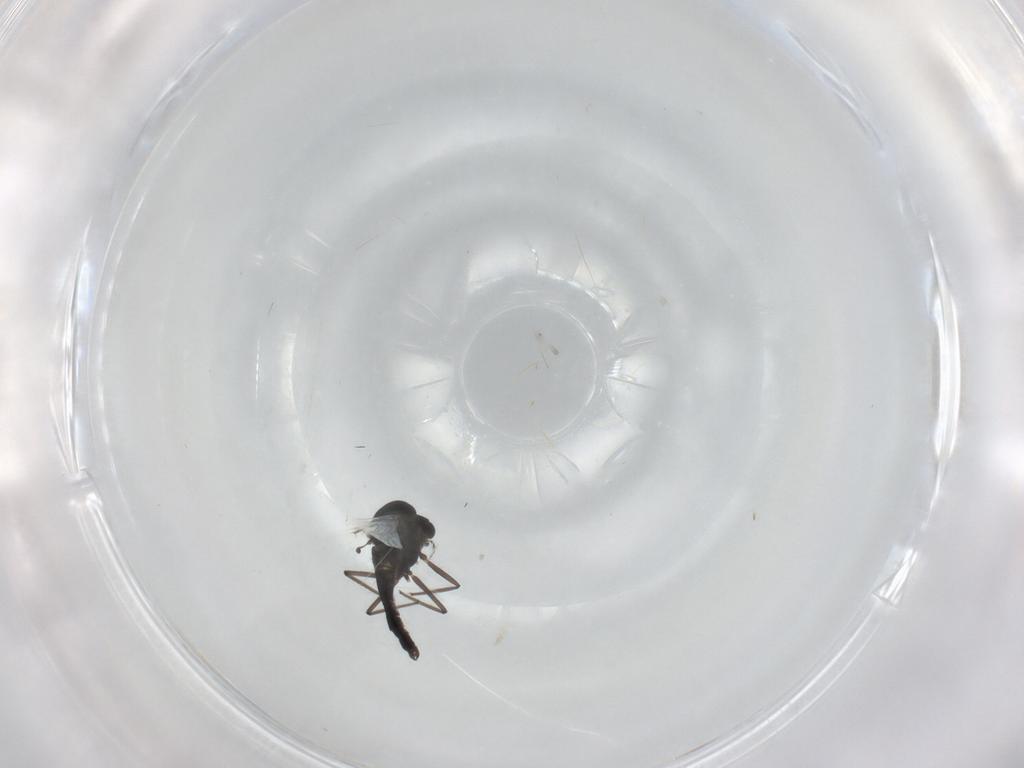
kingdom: Animalia
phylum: Arthropoda
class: Insecta
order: Diptera
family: Chironomidae
